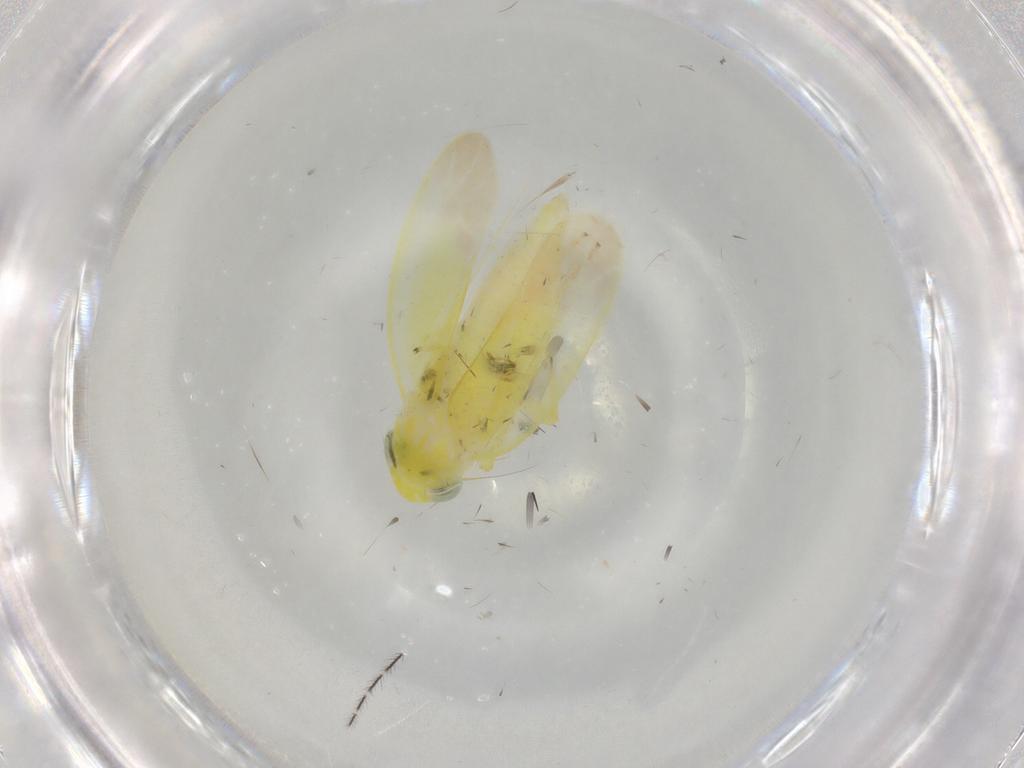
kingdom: Animalia
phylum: Arthropoda
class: Insecta
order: Hemiptera
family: Cicadellidae
